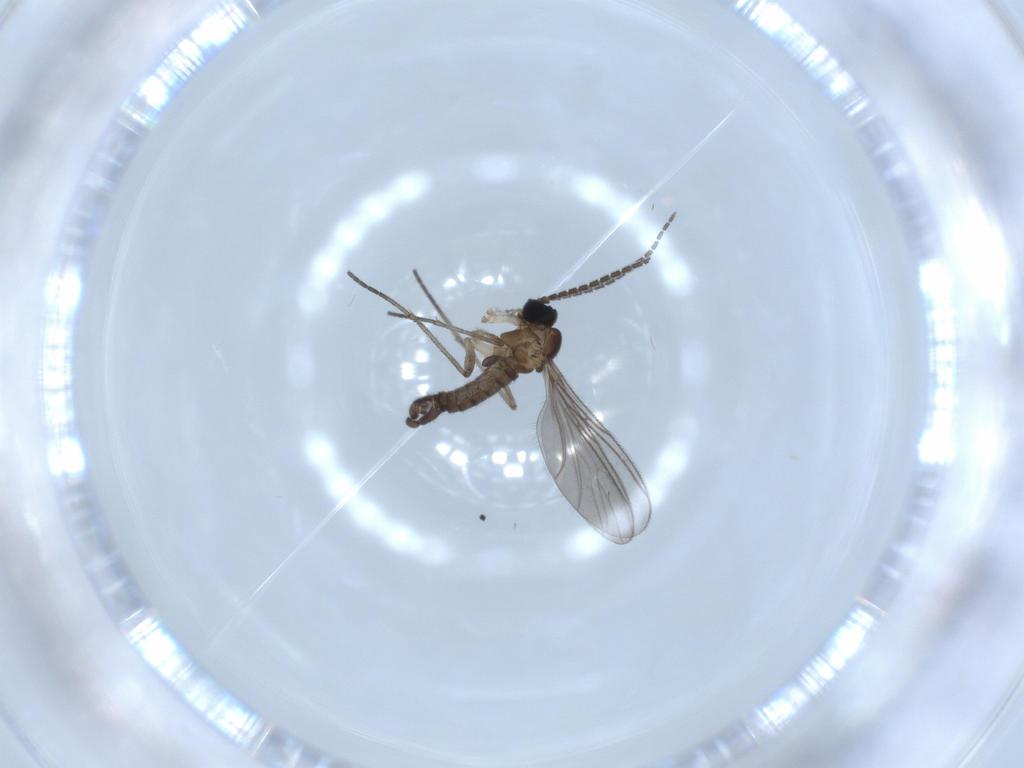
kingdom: Animalia
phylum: Arthropoda
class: Insecta
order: Diptera
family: Sciaridae
